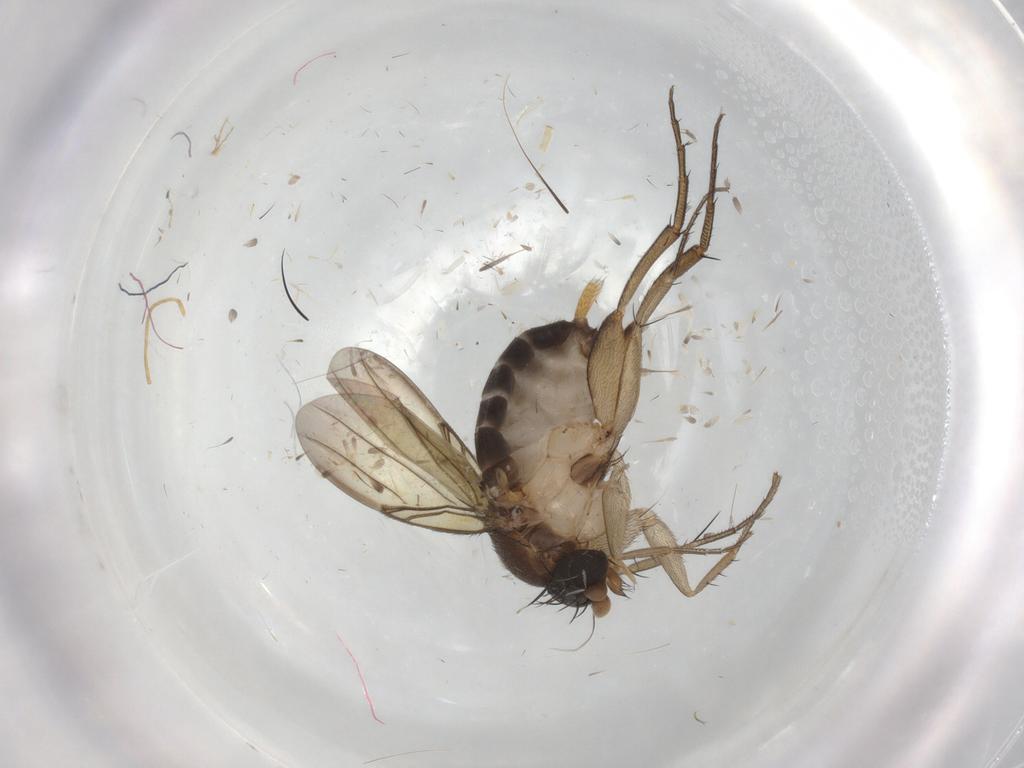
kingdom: Animalia
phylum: Arthropoda
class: Insecta
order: Diptera
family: Phoridae
